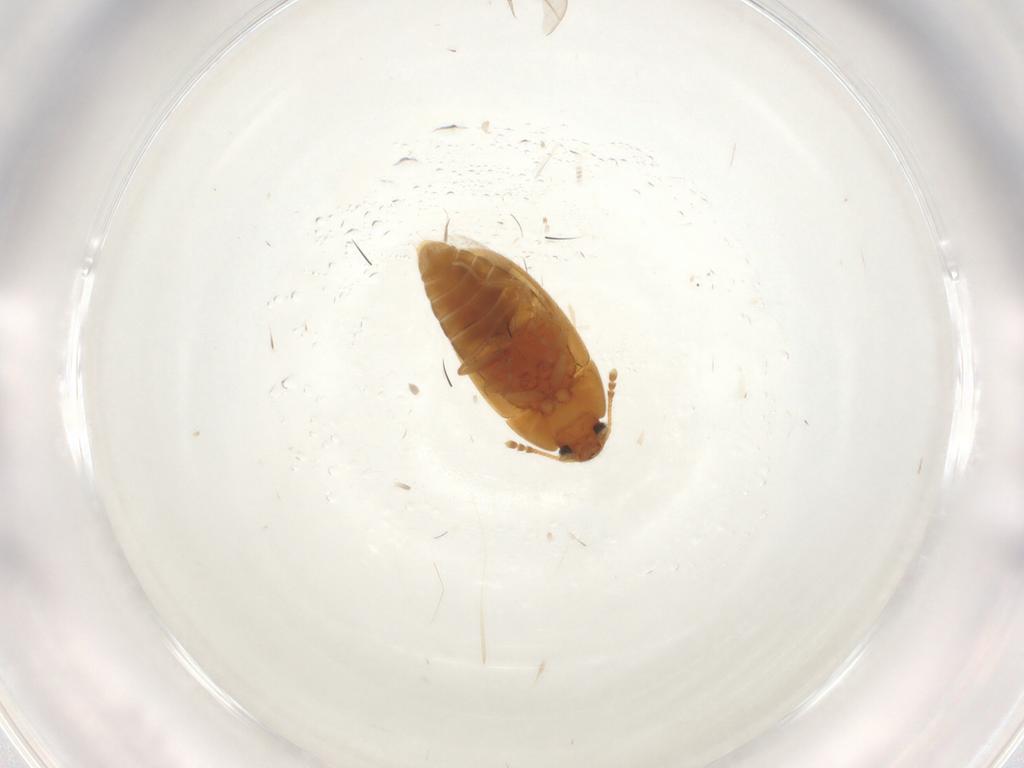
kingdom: Animalia
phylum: Arthropoda
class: Insecta
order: Coleoptera
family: Mycetophagidae
